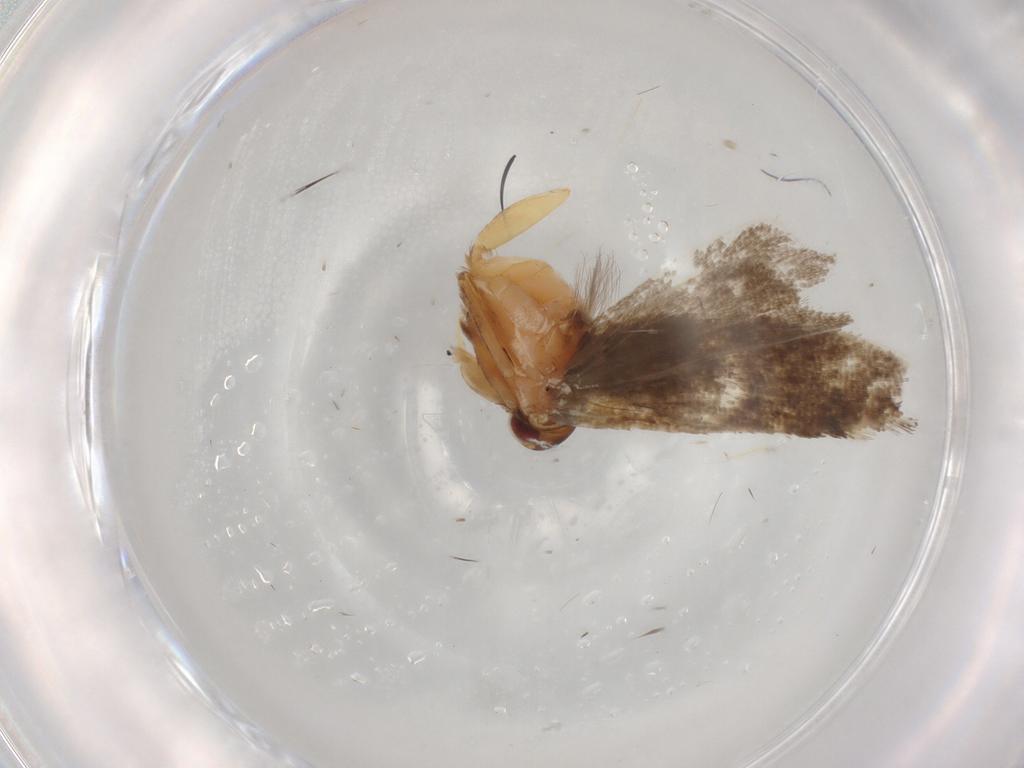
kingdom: Animalia
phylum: Arthropoda
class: Insecta
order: Lepidoptera
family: Gelechiidae
